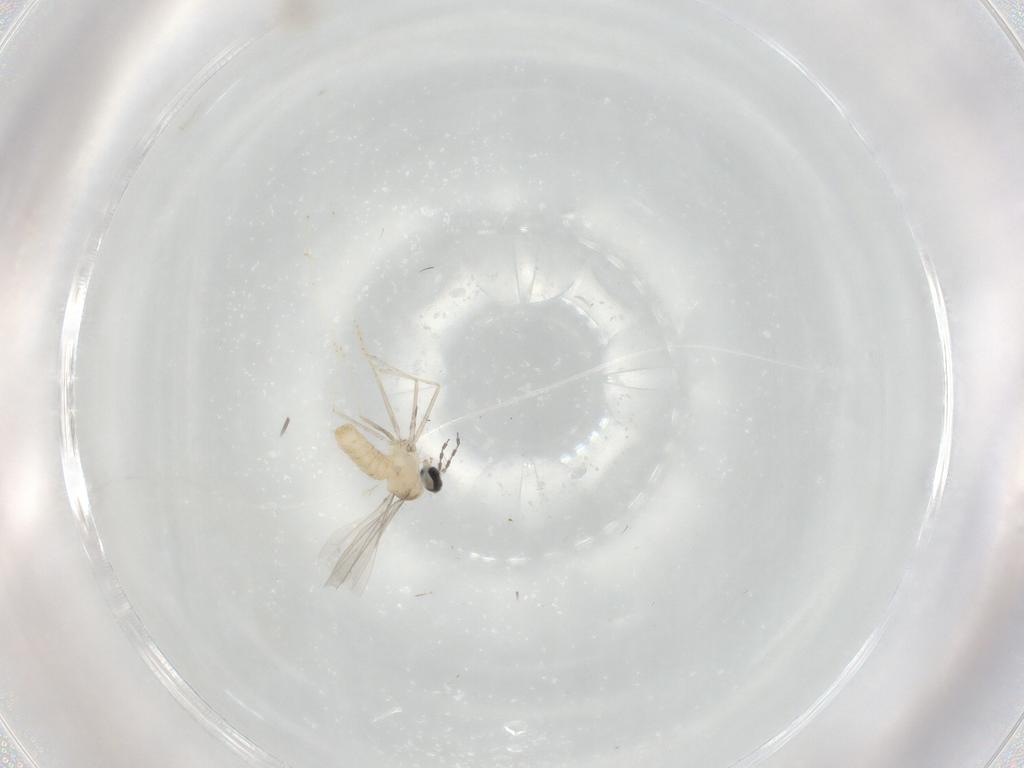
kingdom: Animalia
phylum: Arthropoda
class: Insecta
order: Diptera
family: Cecidomyiidae
